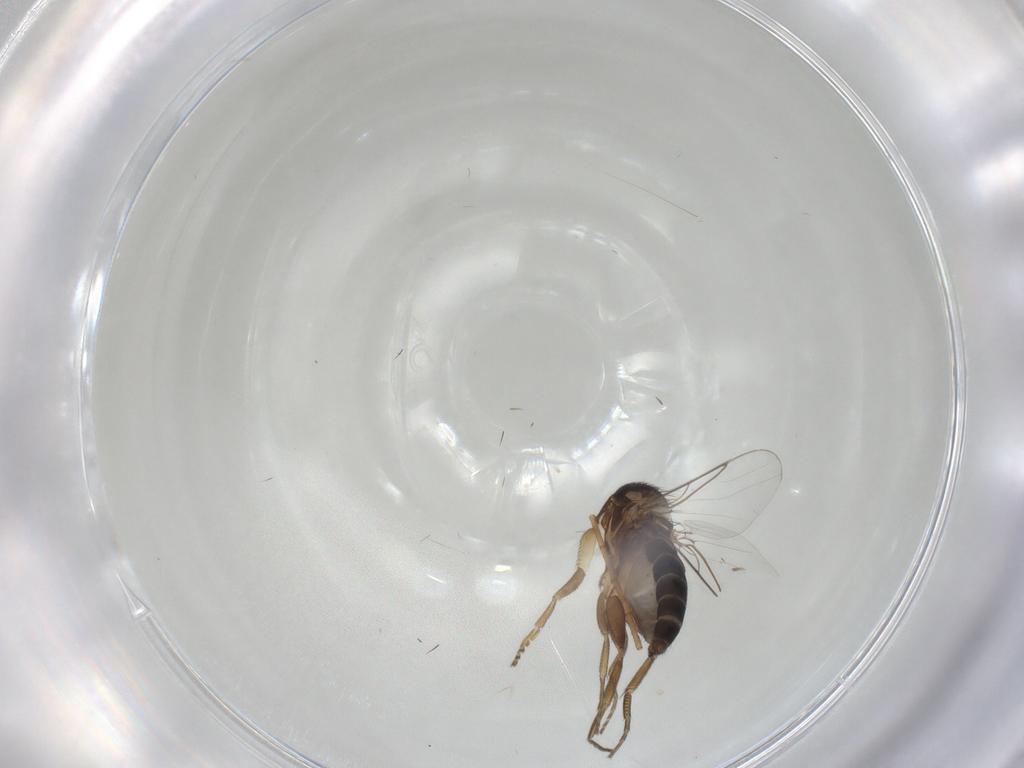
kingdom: Animalia
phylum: Arthropoda
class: Insecta
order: Diptera
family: Phoridae
